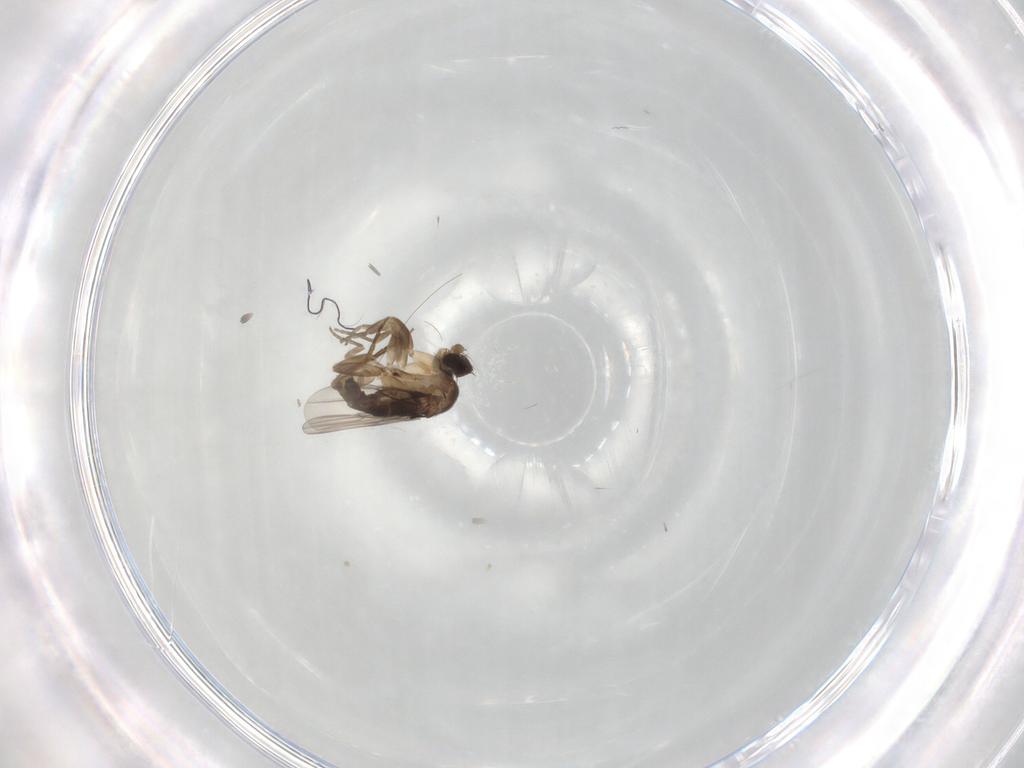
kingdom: Animalia
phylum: Arthropoda
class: Insecta
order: Diptera
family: Phoridae
